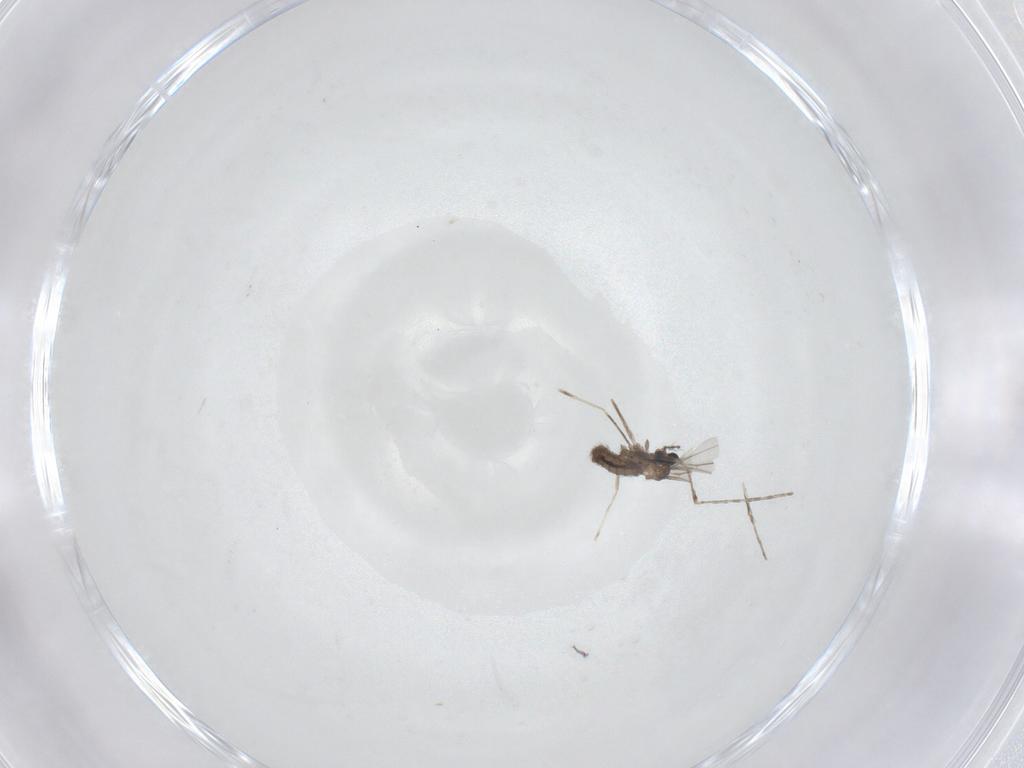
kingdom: Animalia
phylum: Arthropoda
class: Insecta
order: Diptera
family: Cecidomyiidae
